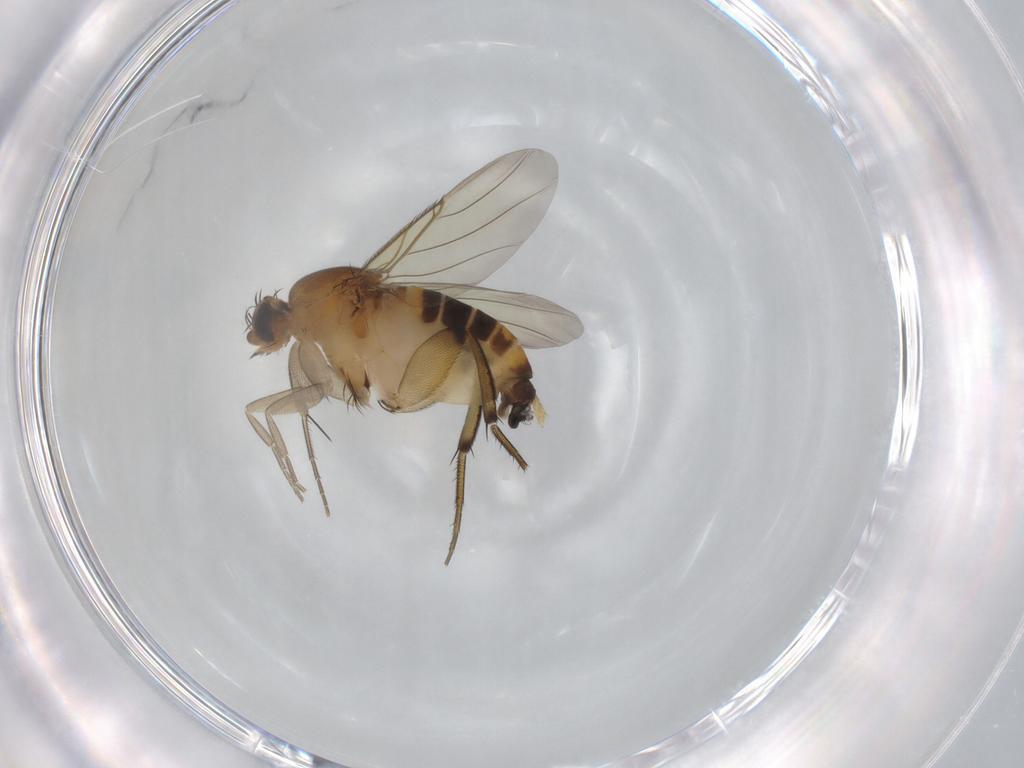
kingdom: Animalia
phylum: Arthropoda
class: Insecta
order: Diptera
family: Phoridae
